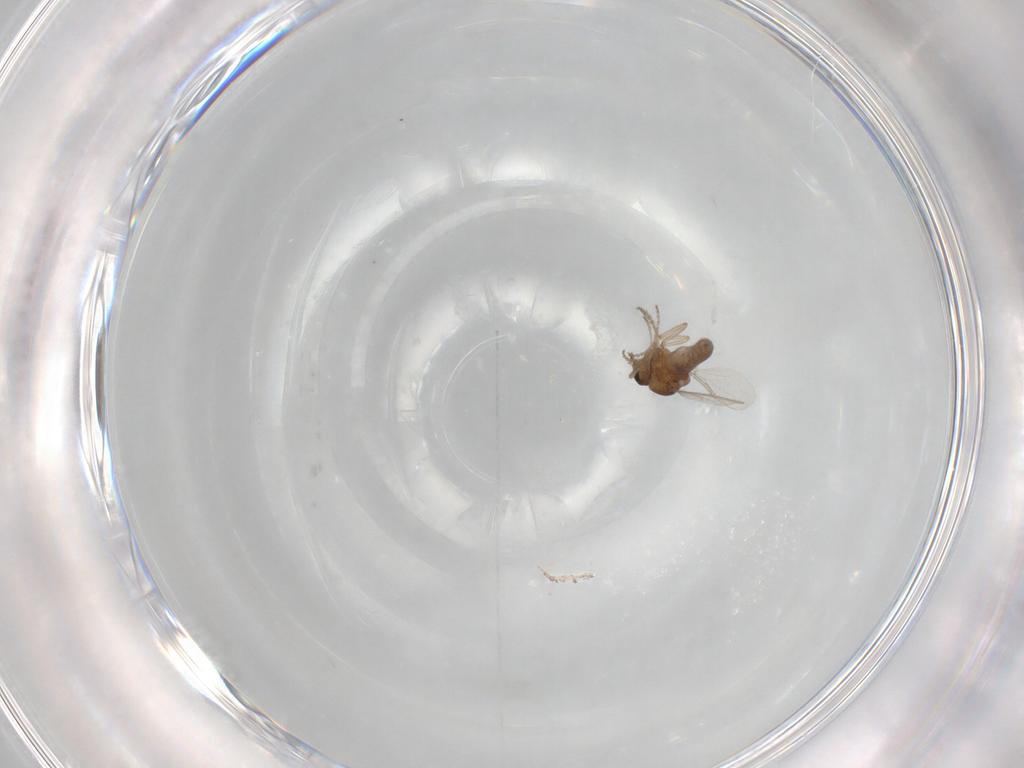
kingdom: Animalia
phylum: Arthropoda
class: Insecta
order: Diptera
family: Ceratopogonidae
